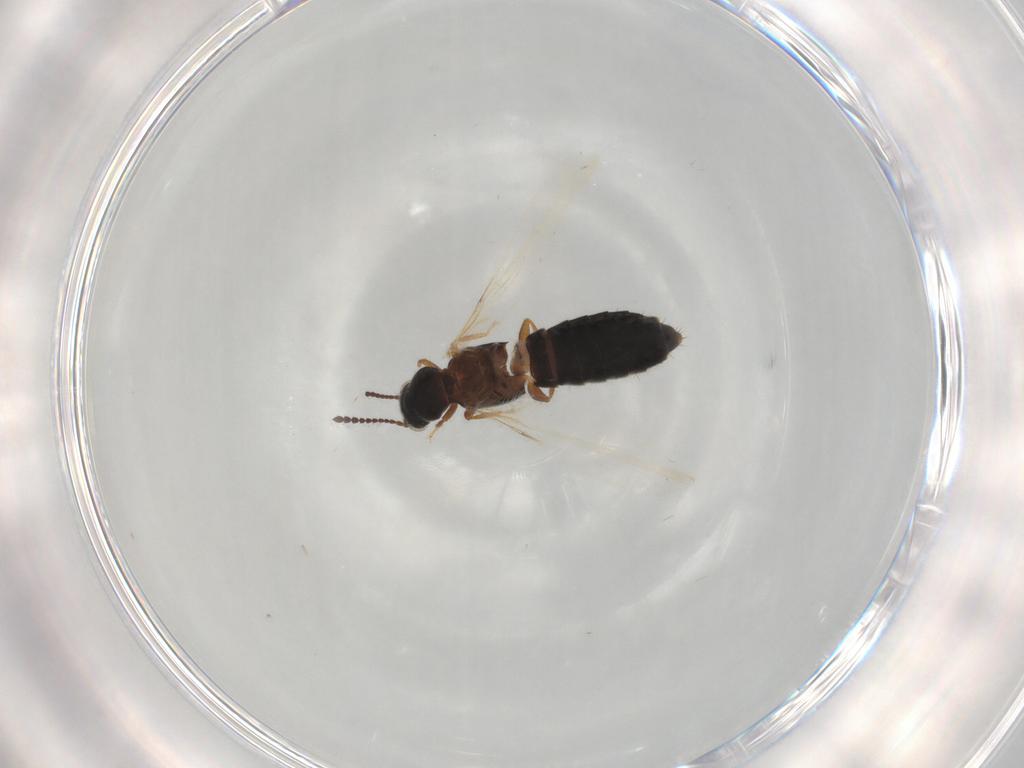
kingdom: Animalia
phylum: Arthropoda
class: Insecta
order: Coleoptera
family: Staphylinidae
